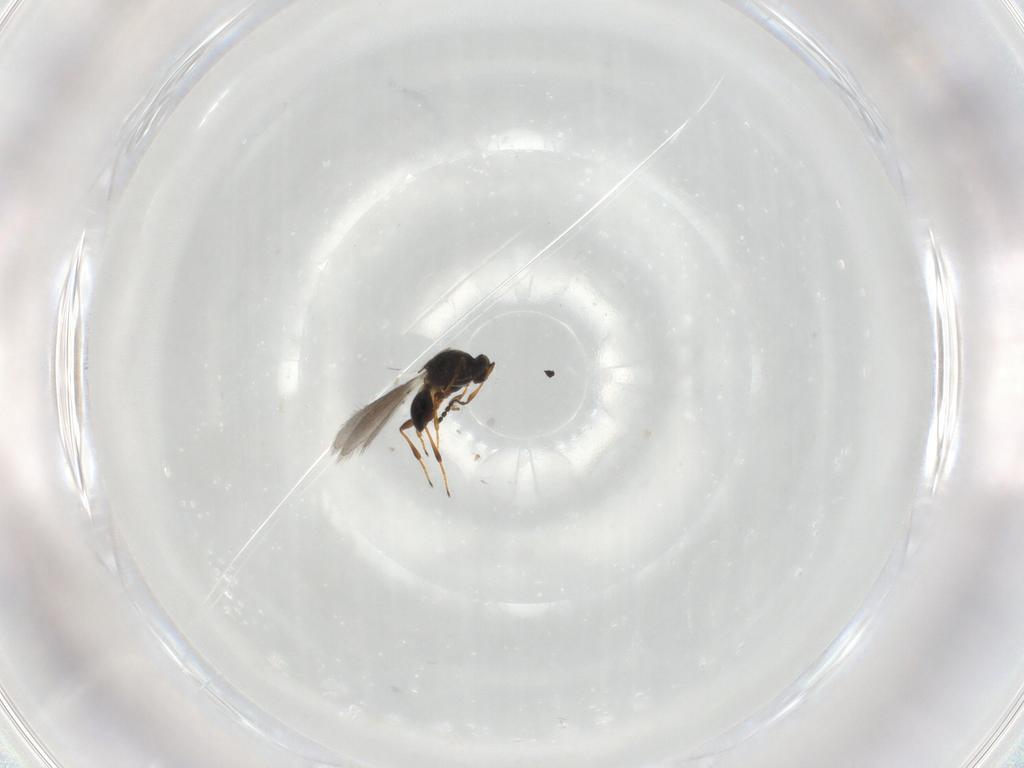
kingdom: Animalia
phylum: Arthropoda
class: Insecta
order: Hymenoptera
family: Platygastridae
